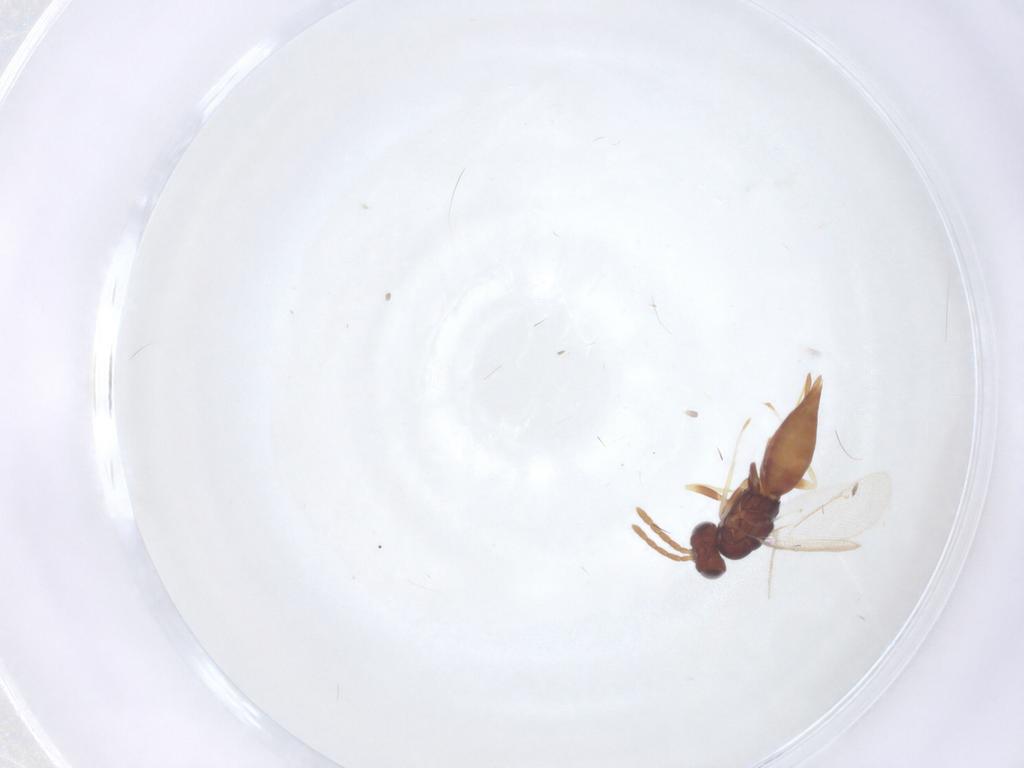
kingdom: Animalia
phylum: Arthropoda
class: Insecta
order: Hymenoptera
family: Eulophidae
